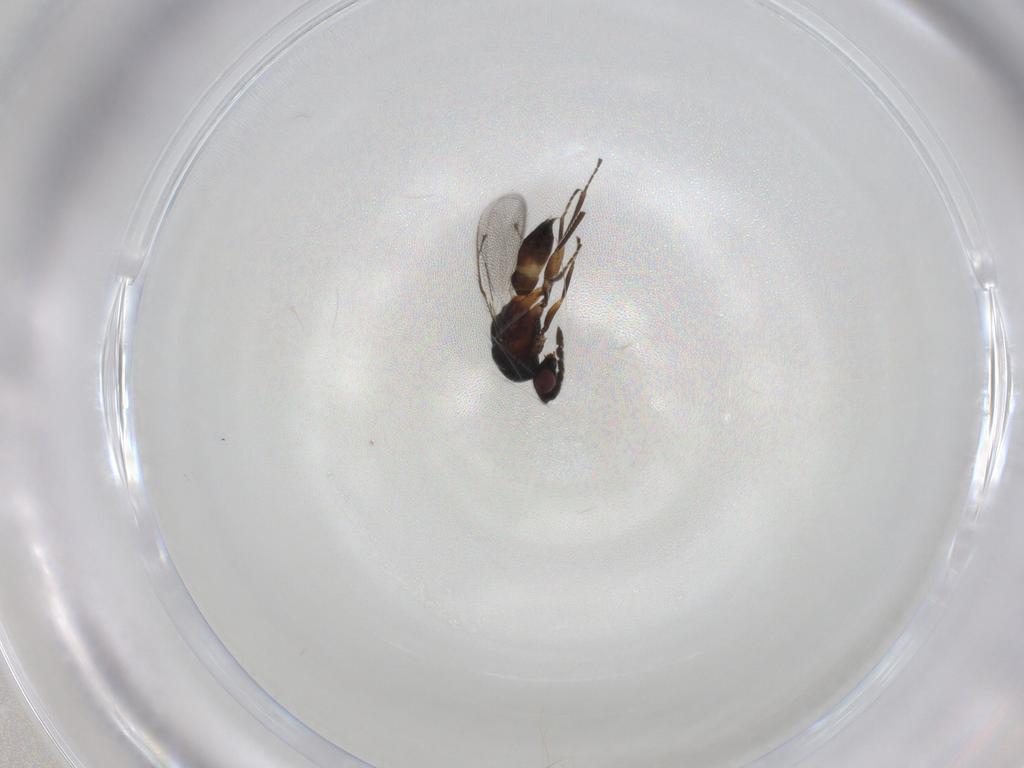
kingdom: Animalia
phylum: Arthropoda
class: Insecta
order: Hymenoptera
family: Eulophidae
